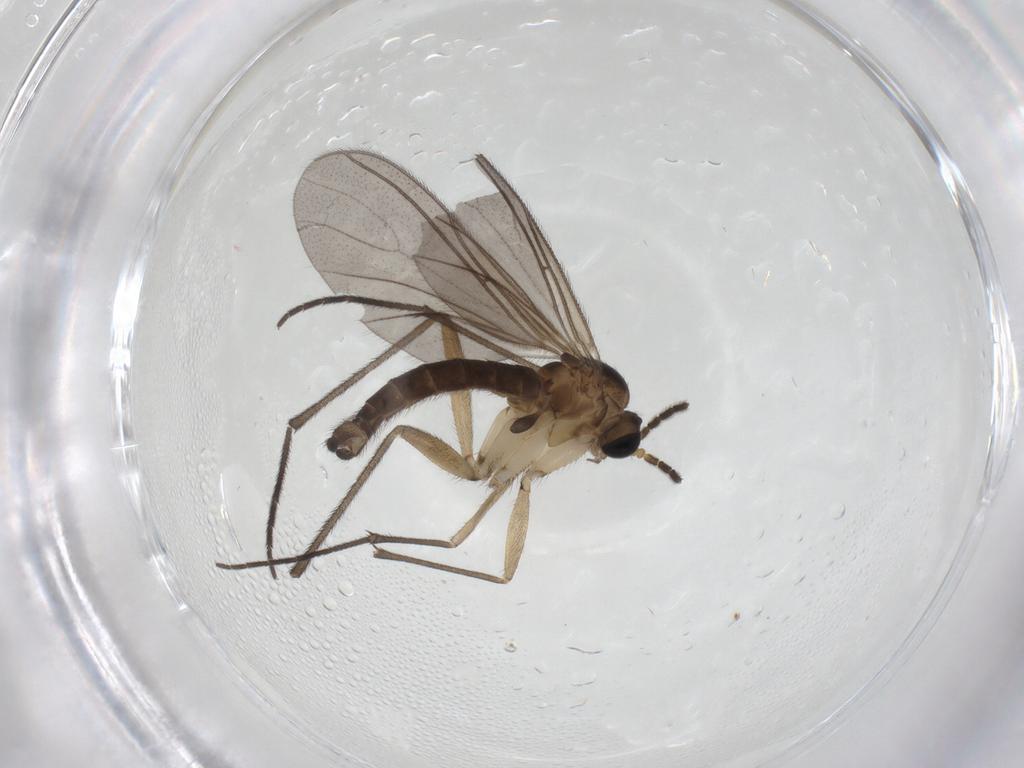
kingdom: Animalia
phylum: Arthropoda
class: Insecta
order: Diptera
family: Sciaridae
